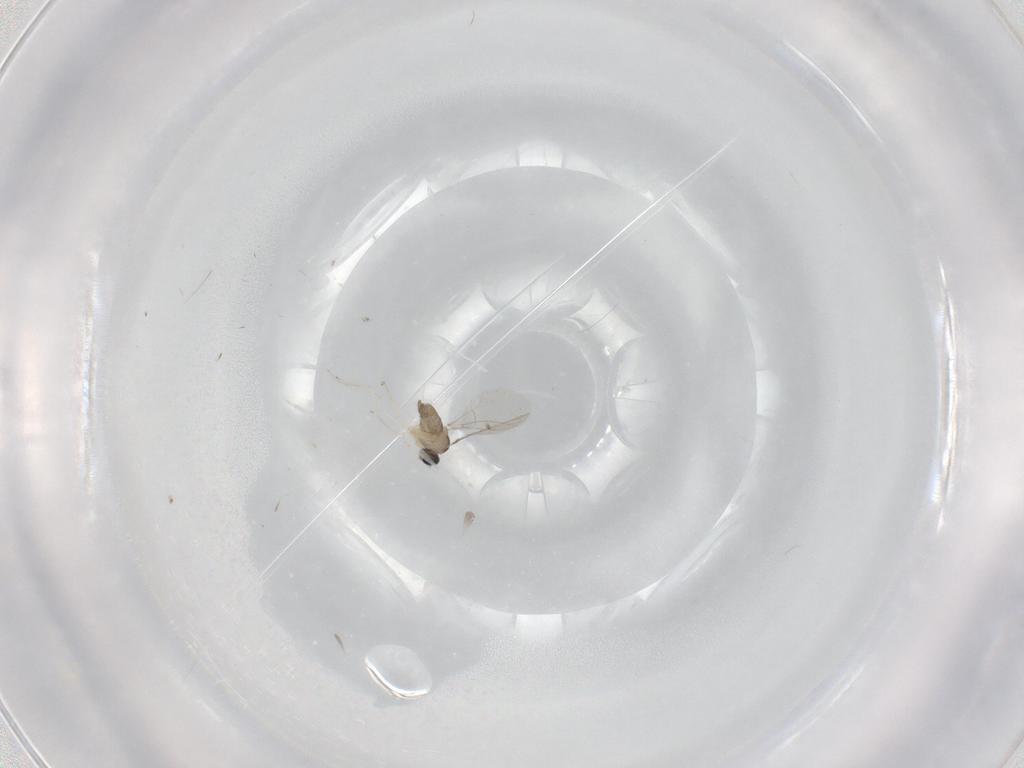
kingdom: Animalia
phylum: Arthropoda
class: Insecta
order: Diptera
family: Cecidomyiidae
